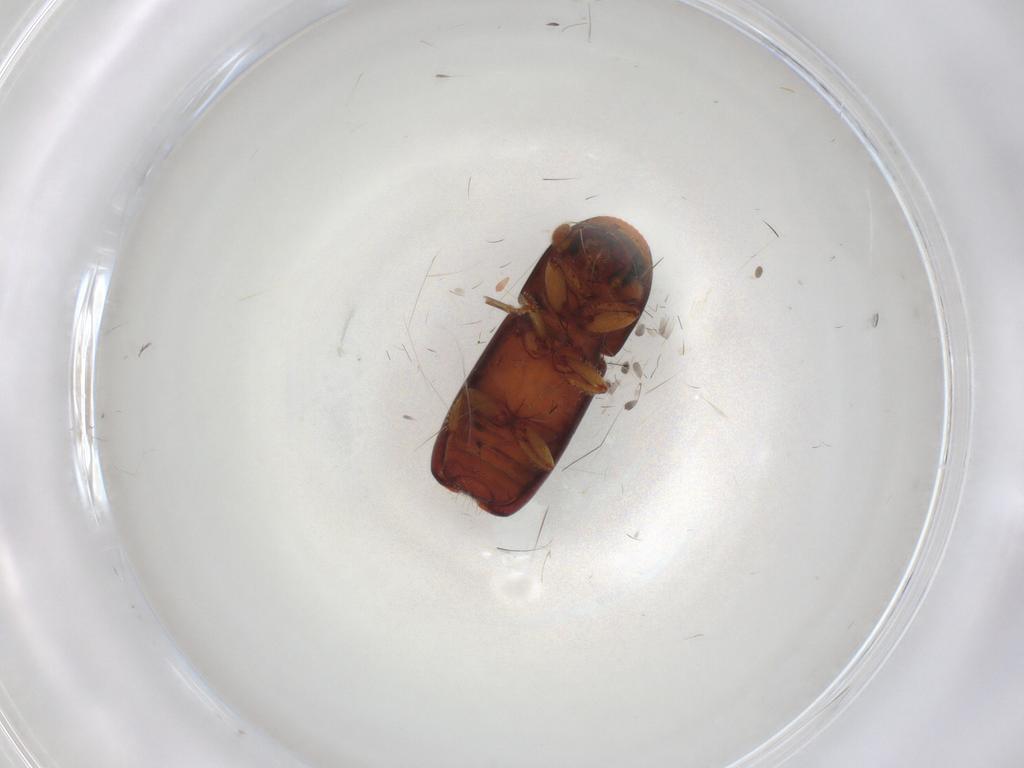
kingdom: Animalia
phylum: Arthropoda
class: Insecta
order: Coleoptera
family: Ptilodactylidae
